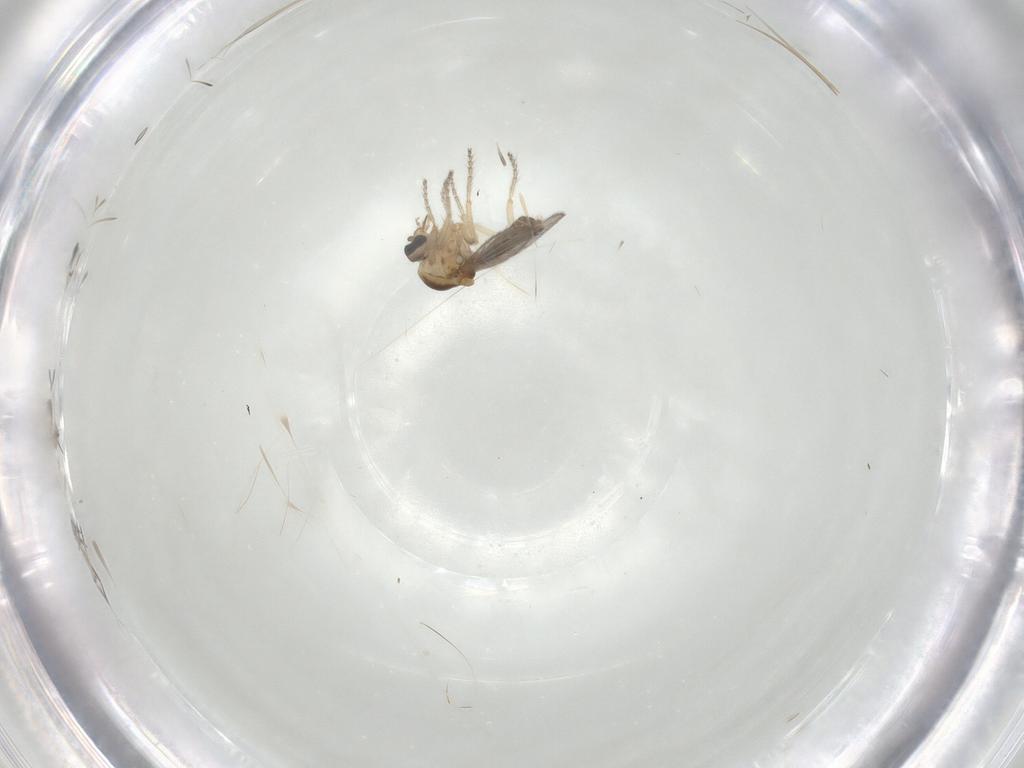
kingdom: Animalia
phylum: Arthropoda
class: Insecta
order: Diptera
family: Ceratopogonidae
